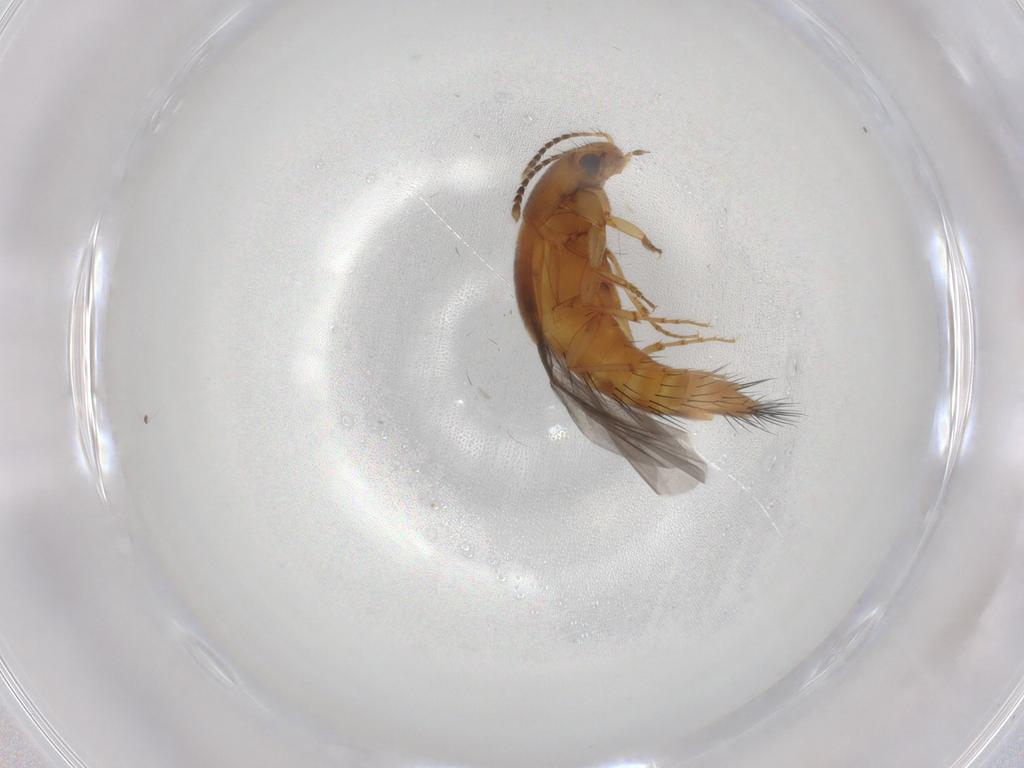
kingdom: Animalia
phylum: Arthropoda
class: Insecta
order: Coleoptera
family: Staphylinidae
